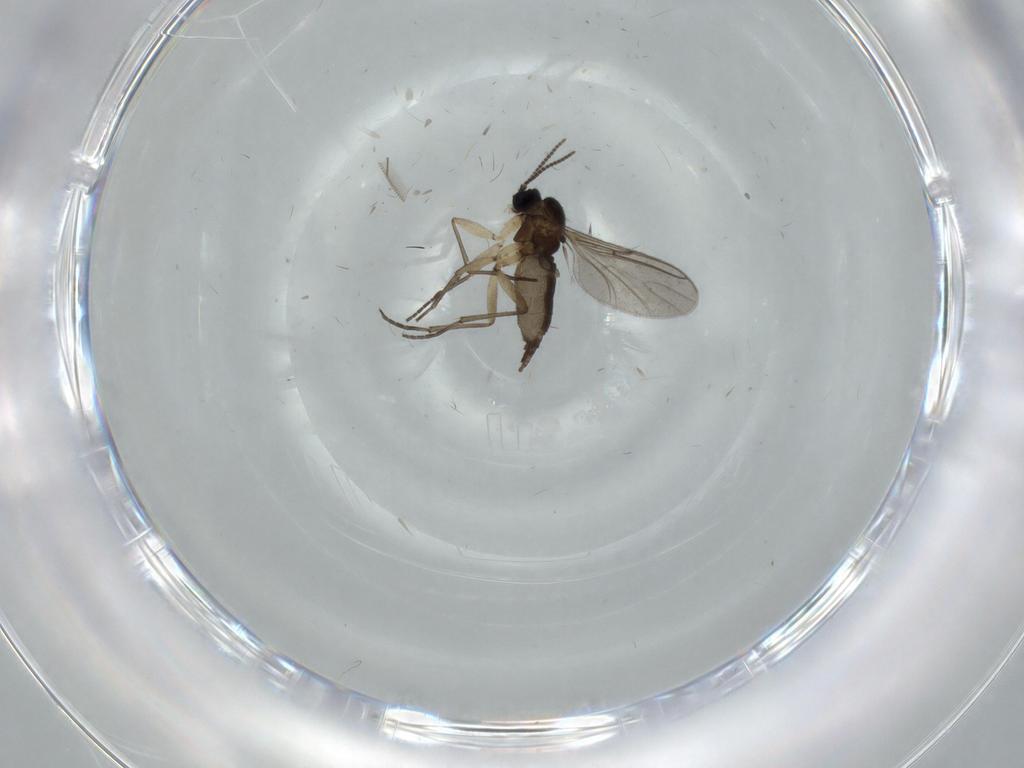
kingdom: Animalia
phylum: Arthropoda
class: Insecta
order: Diptera
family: Sciaridae
